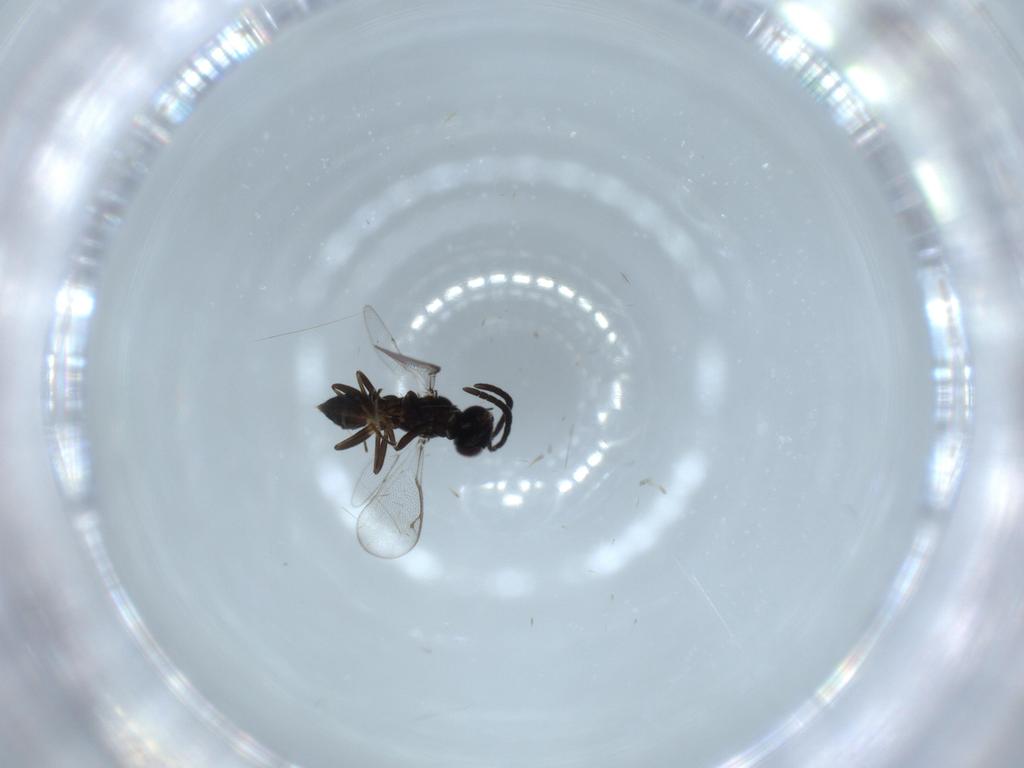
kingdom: Animalia
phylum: Arthropoda
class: Insecta
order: Hymenoptera
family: Eupelmidae
